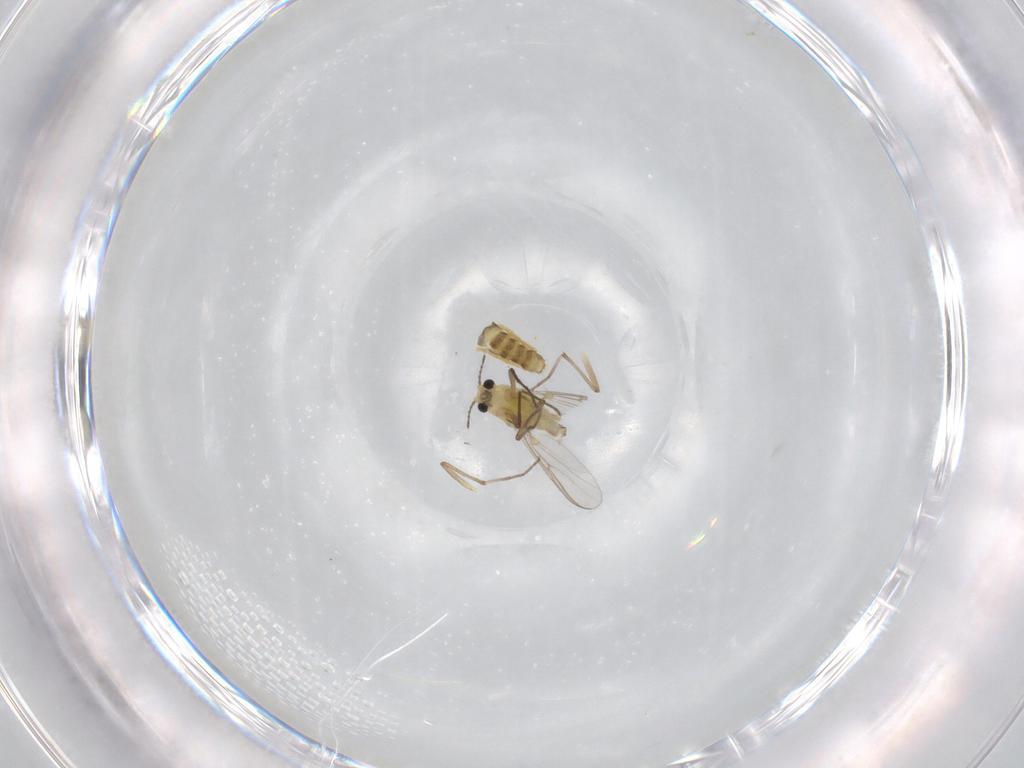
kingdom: Animalia
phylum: Arthropoda
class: Insecta
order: Diptera
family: Chironomidae
